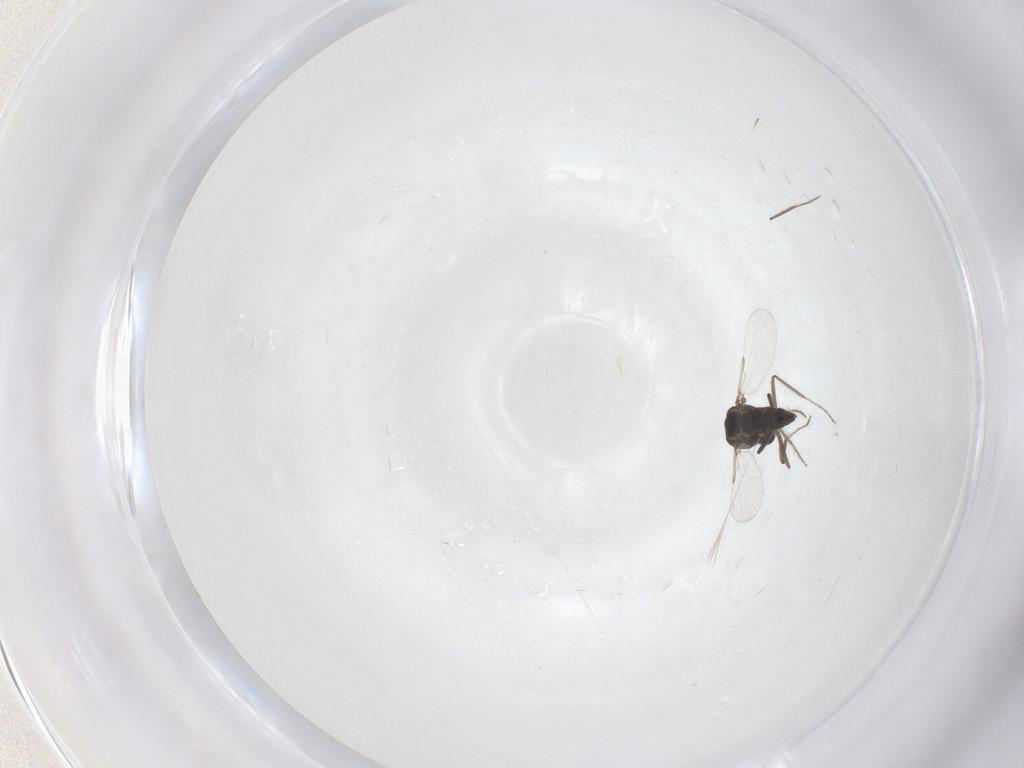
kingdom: Animalia
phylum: Arthropoda
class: Insecta
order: Diptera
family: Ceratopogonidae
